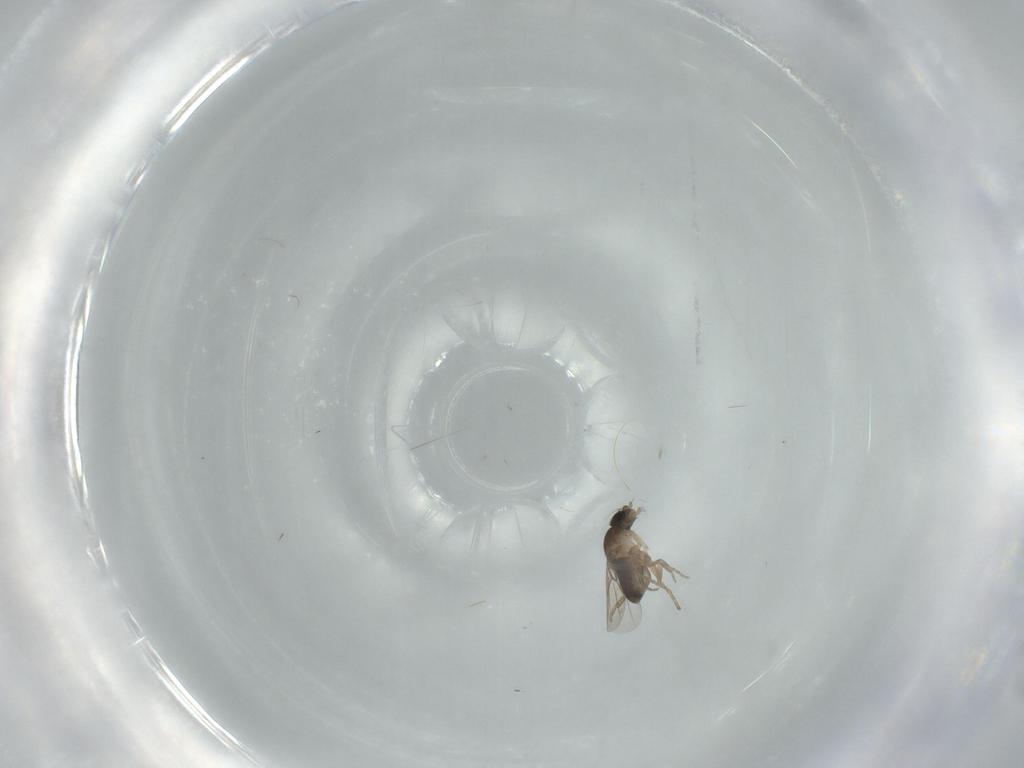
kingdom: Animalia
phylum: Arthropoda
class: Insecta
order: Diptera
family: Phoridae
